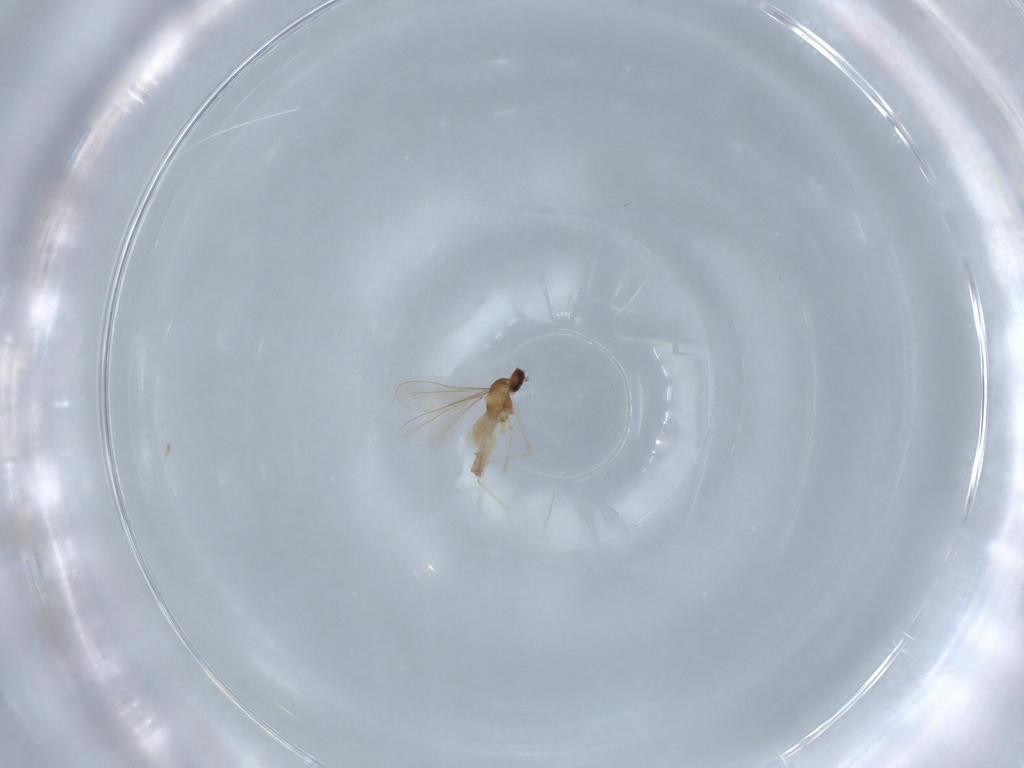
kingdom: Animalia
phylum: Arthropoda
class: Insecta
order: Diptera
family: Cecidomyiidae
